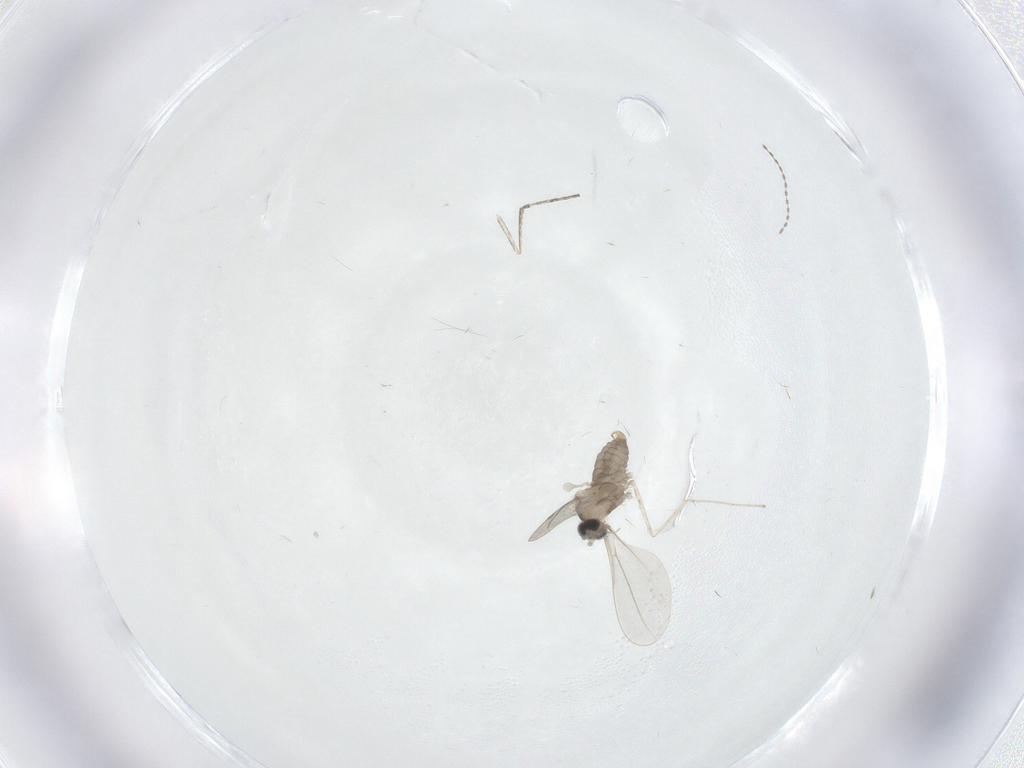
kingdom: Animalia
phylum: Arthropoda
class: Insecta
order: Diptera
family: Cecidomyiidae
